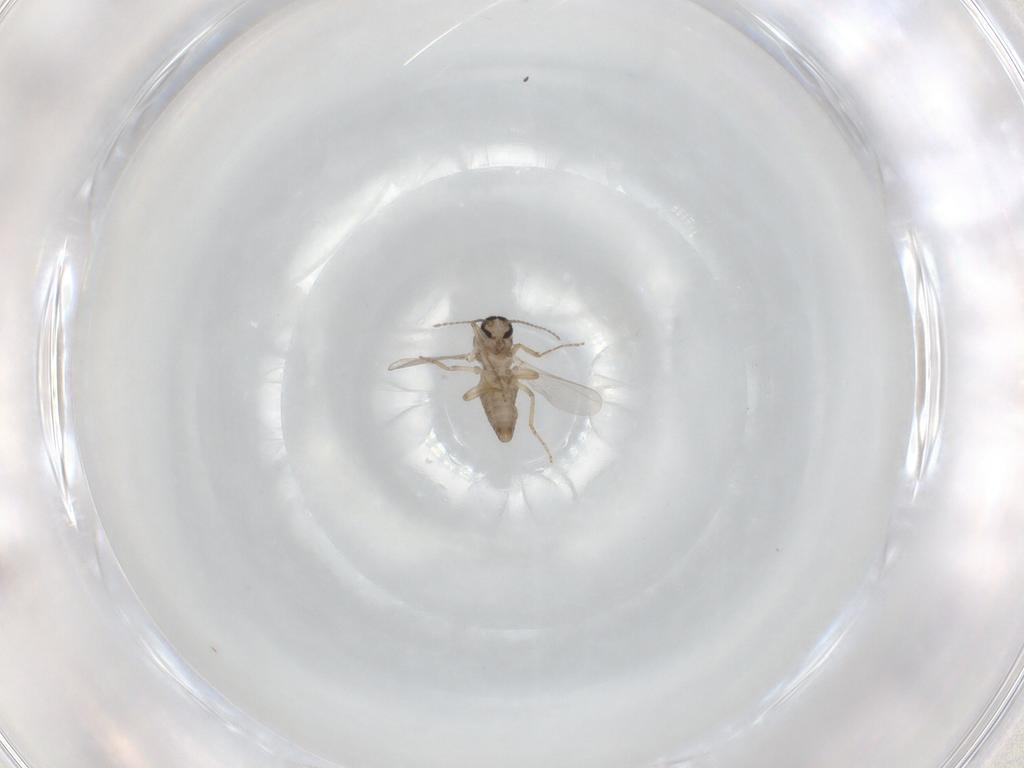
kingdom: Animalia
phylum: Arthropoda
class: Insecta
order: Diptera
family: Ceratopogonidae
